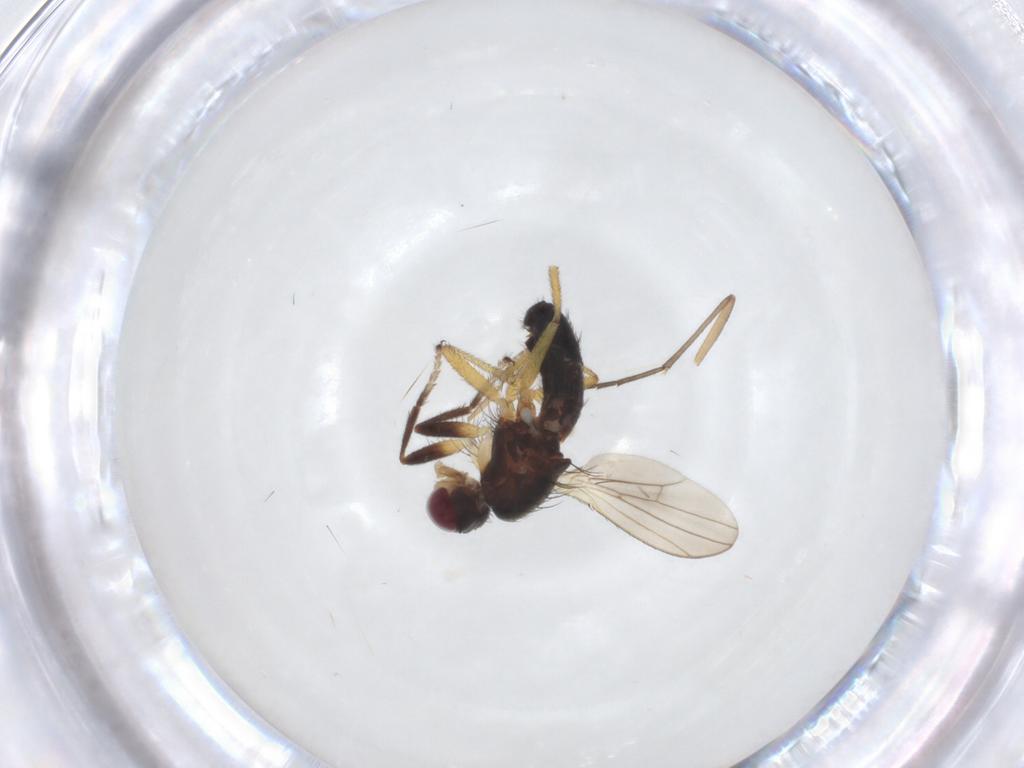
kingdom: Animalia
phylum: Arthropoda
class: Insecta
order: Diptera
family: Heleomyzidae
